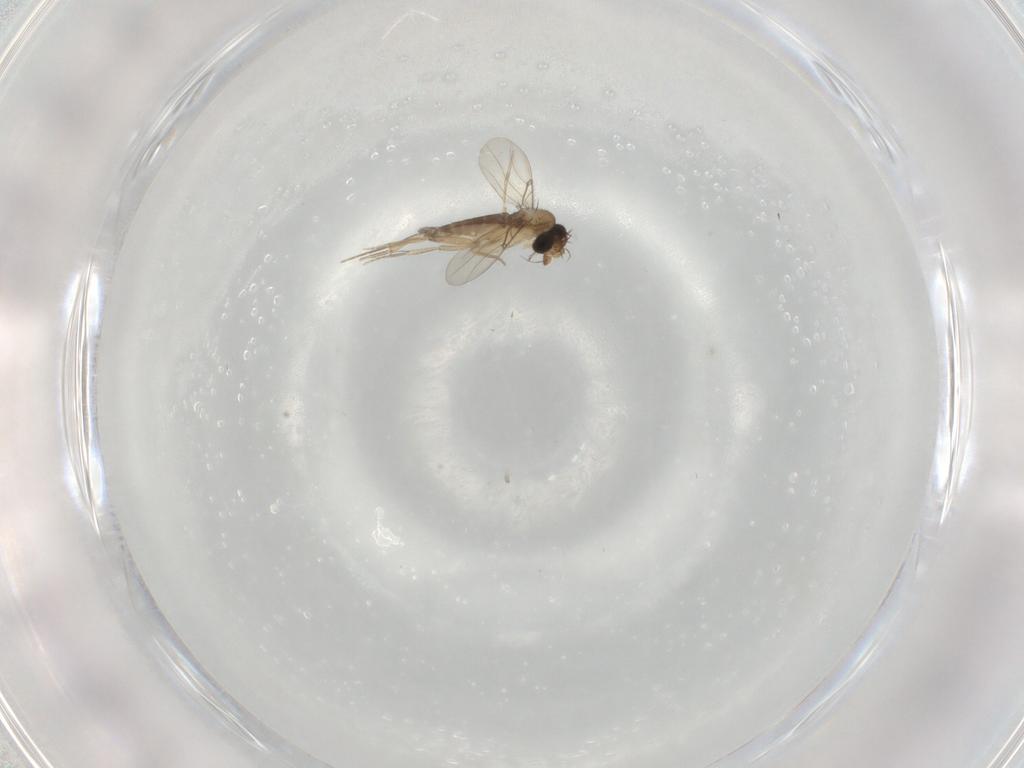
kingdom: Animalia
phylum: Arthropoda
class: Insecta
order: Diptera
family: Phoridae
